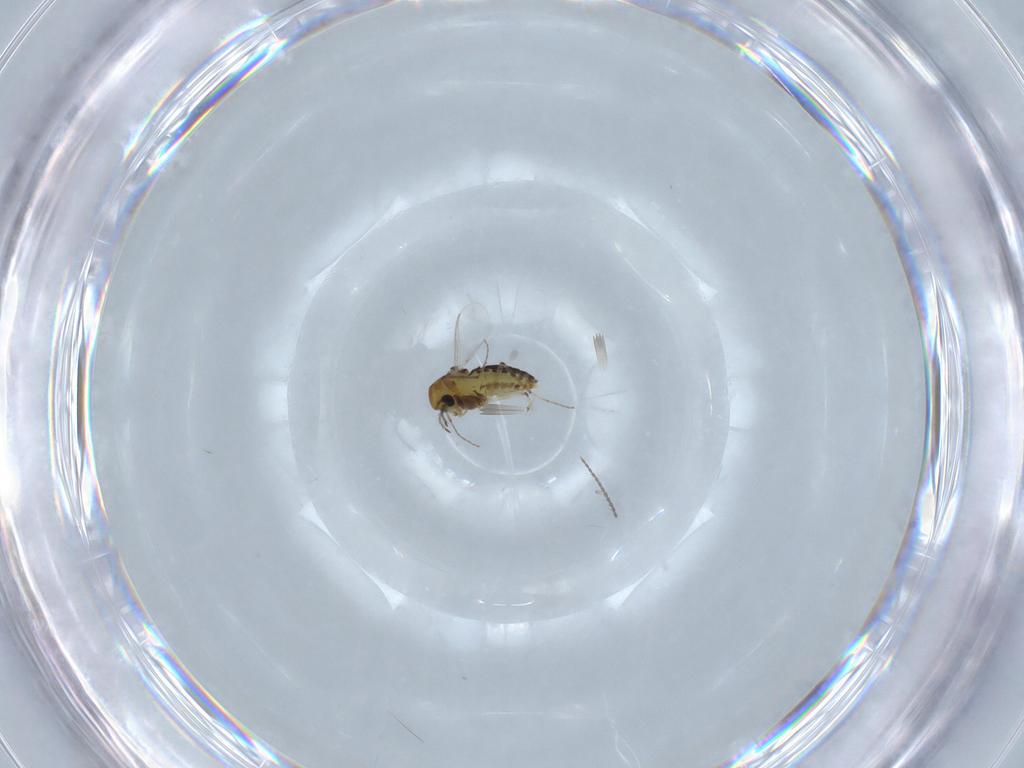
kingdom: Animalia
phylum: Arthropoda
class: Insecta
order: Diptera
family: Chironomidae
